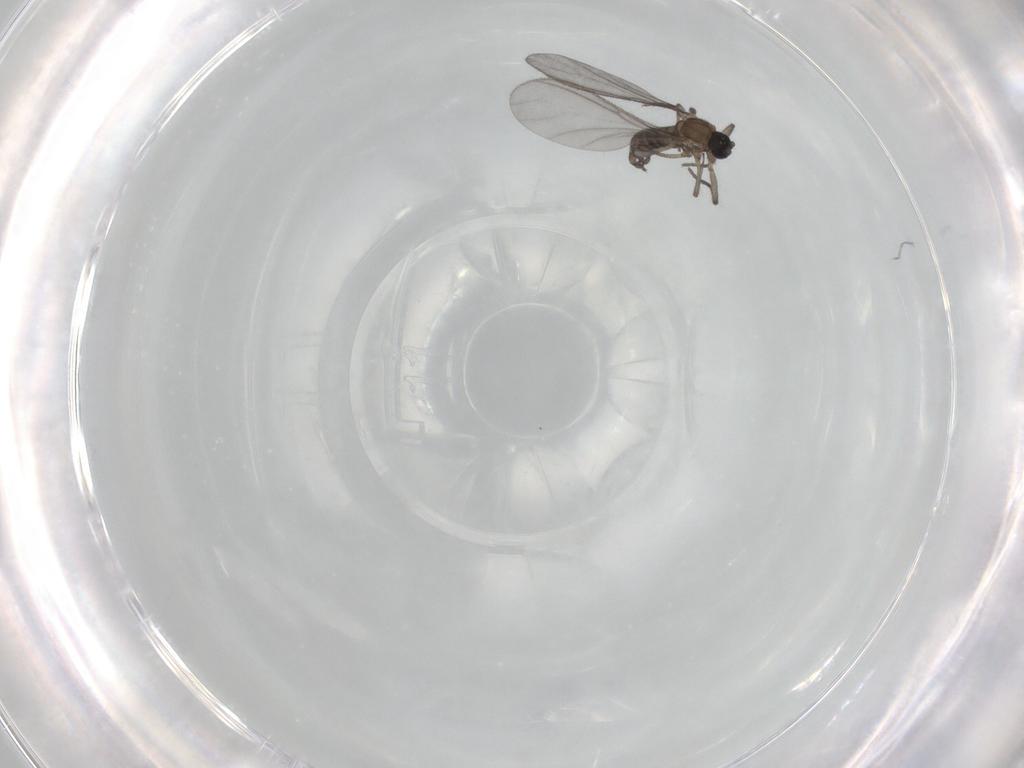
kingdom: Animalia
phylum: Arthropoda
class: Insecta
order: Diptera
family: Sciaridae
